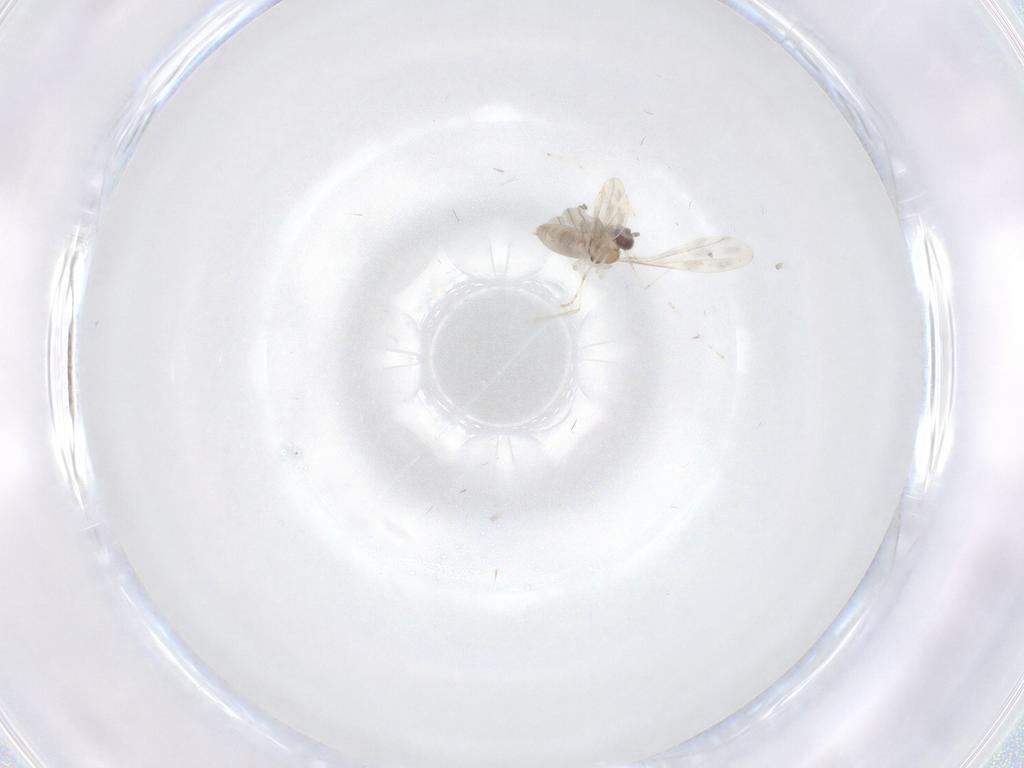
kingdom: Animalia
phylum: Arthropoda
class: Insecta
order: Diptera
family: Cecidomyiidae
